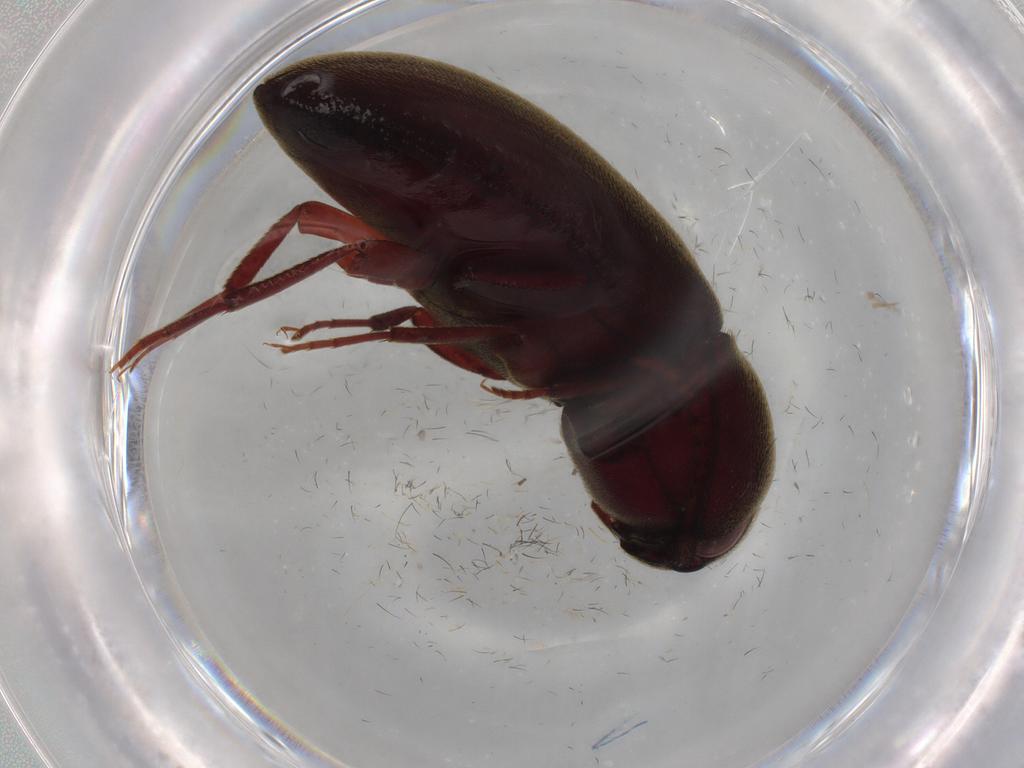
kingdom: Animalia
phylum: Arthropoda
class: Insecta
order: Coleoptera
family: Eucnemidae
